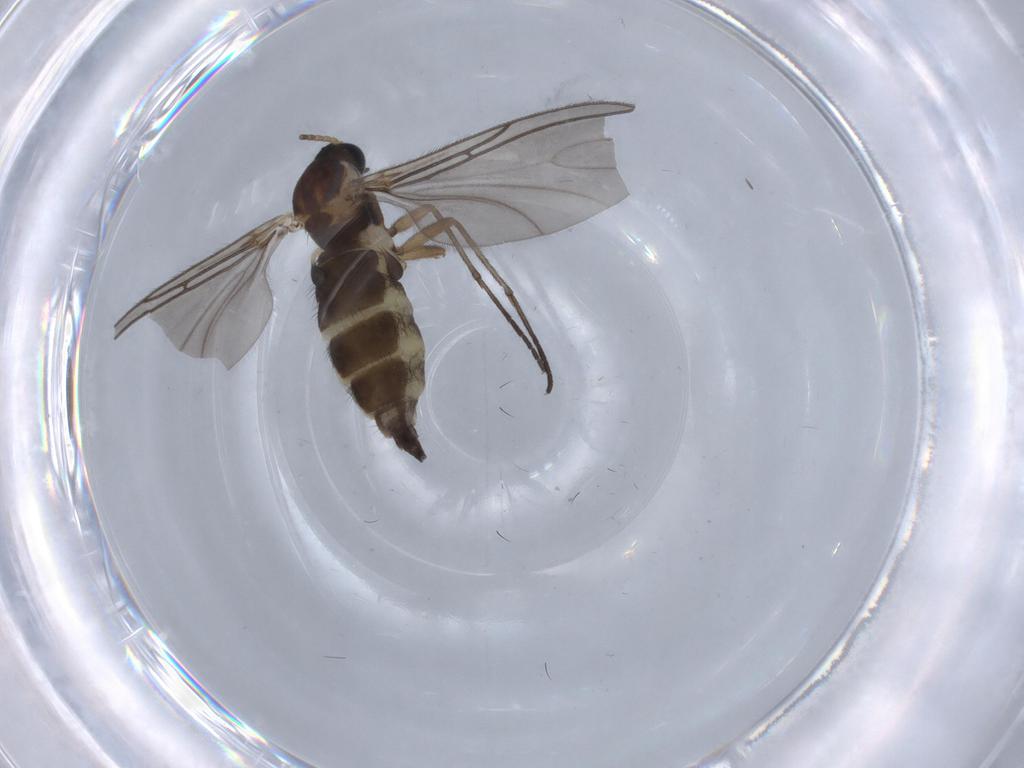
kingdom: Animalia
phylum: Arthropoda
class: Insecta
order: Diptera
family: Sciaridae
